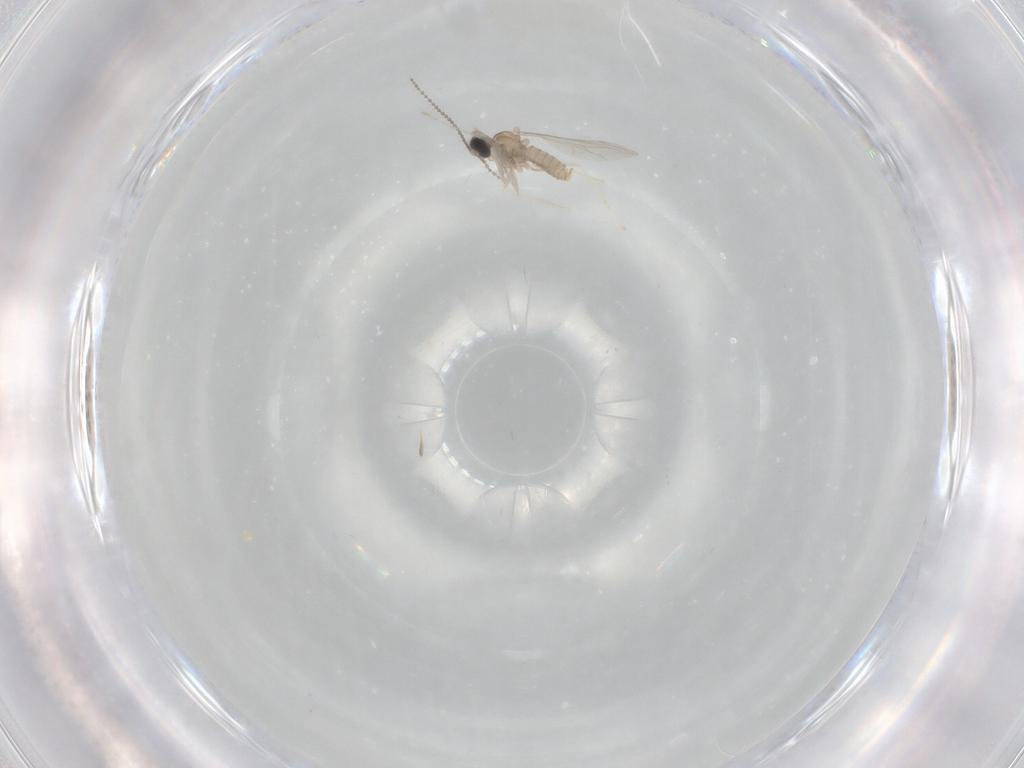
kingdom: Animalia
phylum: Arthropoda
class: Insecta
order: Diptera
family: Cecidomyiidae
